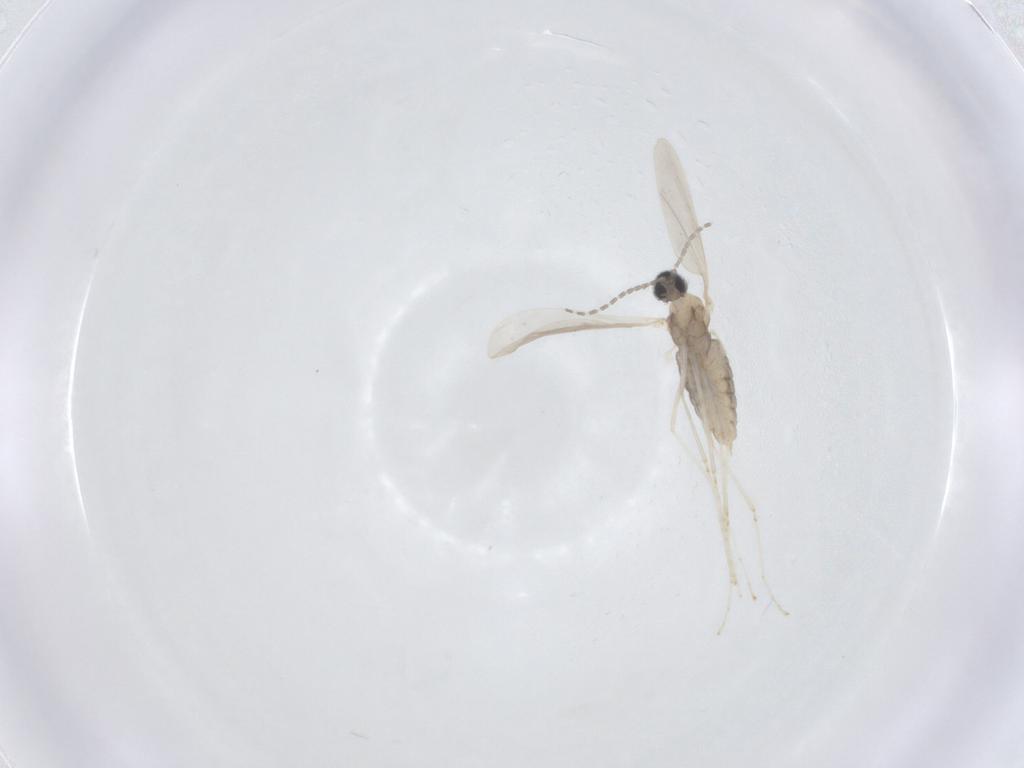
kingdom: Animalia
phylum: Arthropoda
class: Insecta
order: Diptera
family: Cecidomyiidae
